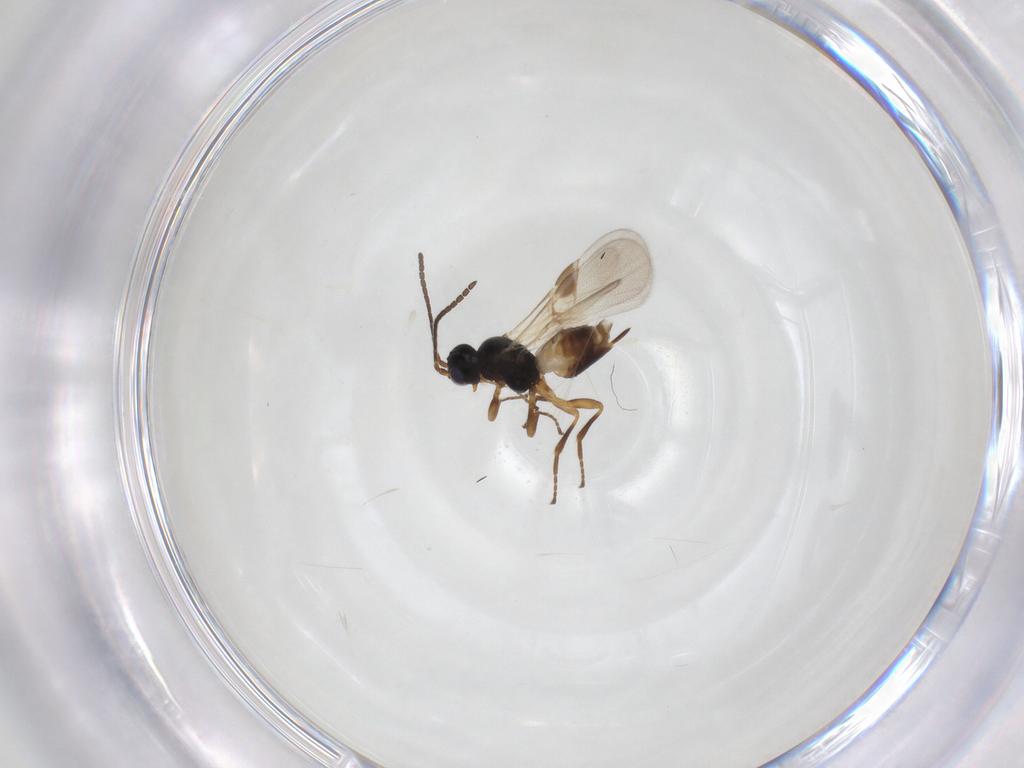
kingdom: Animalia
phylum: Arthropoda
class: Insecta
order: Hymenoptera
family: Braconidae
